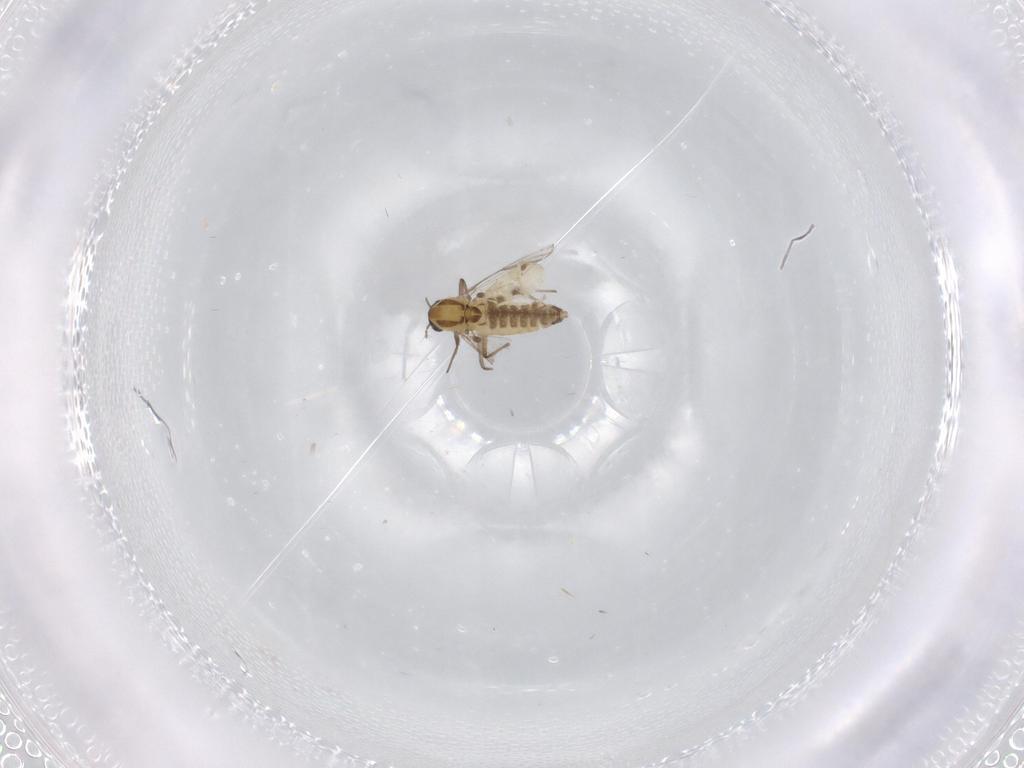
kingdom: Animalia
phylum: Arthropoda
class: Insecta
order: Diptera
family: Chironomidae
